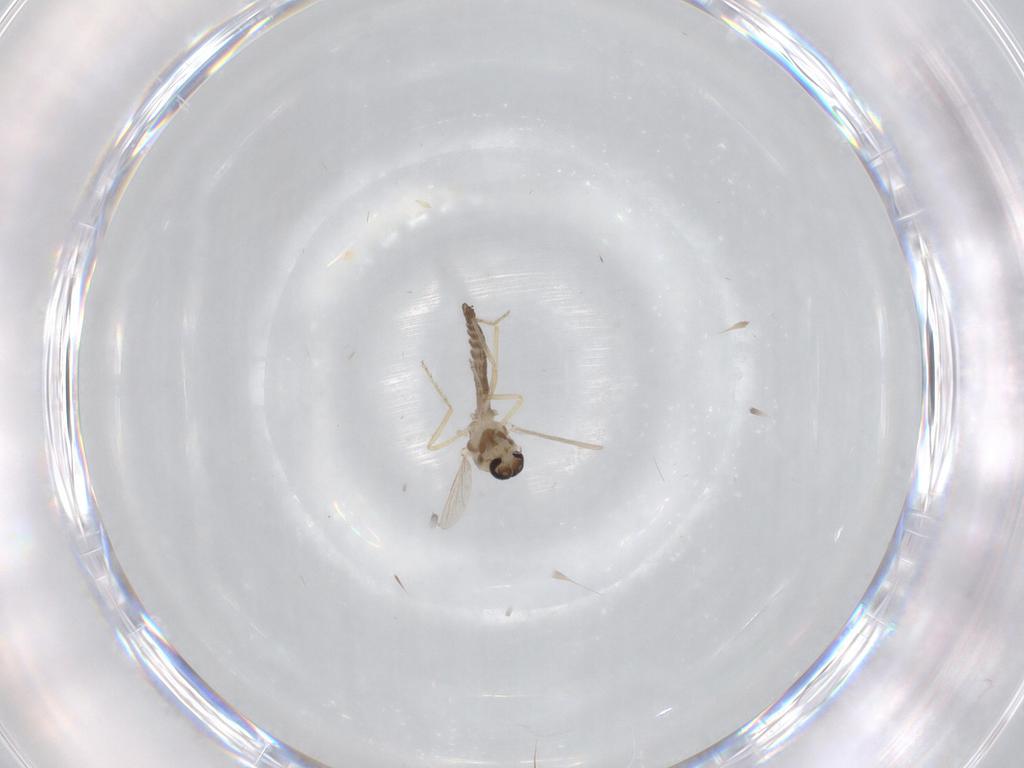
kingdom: Animalia
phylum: Arthropoda
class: Insecta
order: Diptera
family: Ceratopogonidae
